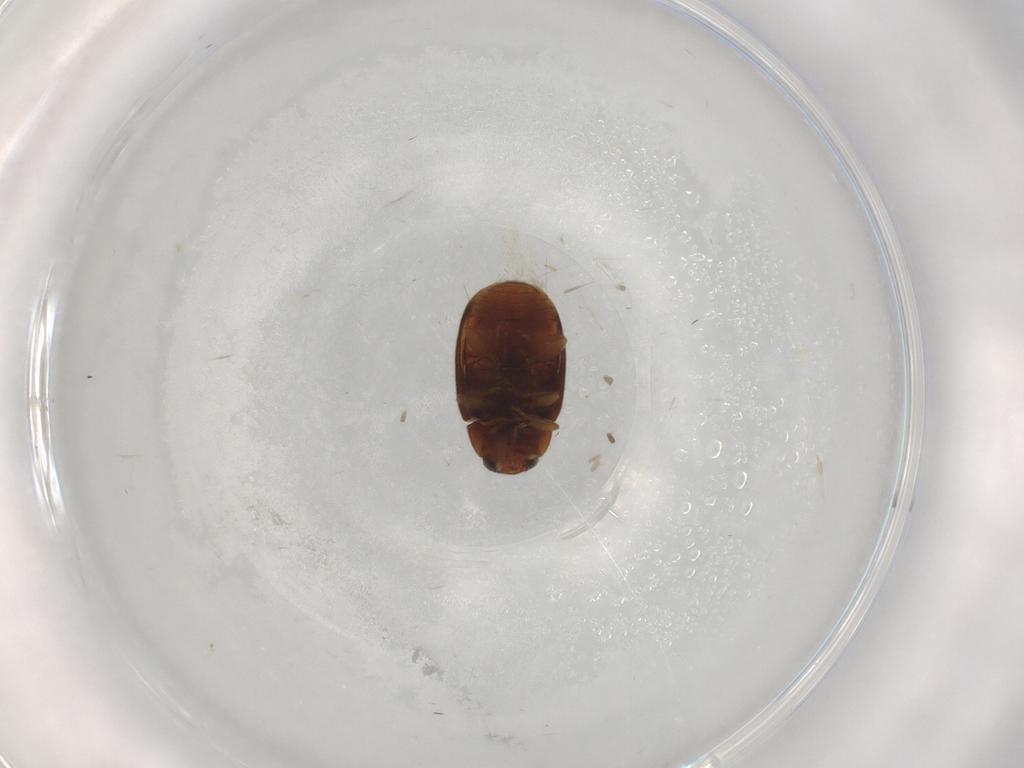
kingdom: Animalia
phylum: Arthropoda
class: Insecta
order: Coleoptera
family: Coccinellidae
